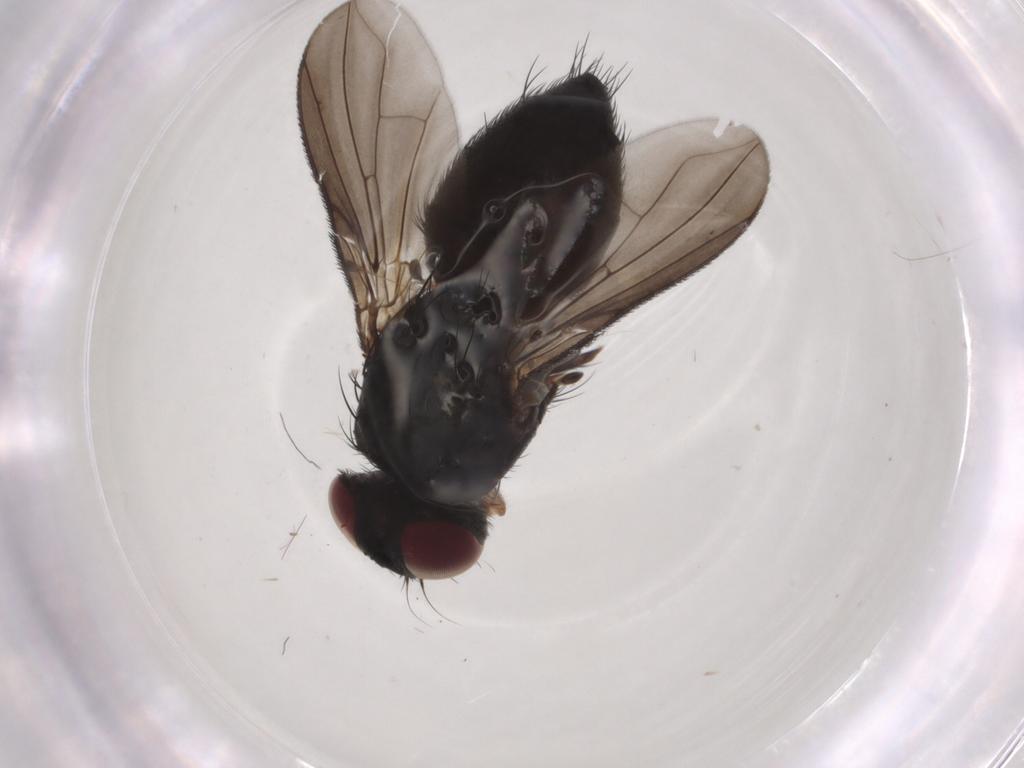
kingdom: Animalia
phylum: Arthropoda
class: Insecta
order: Diptera
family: Calliphoridae
